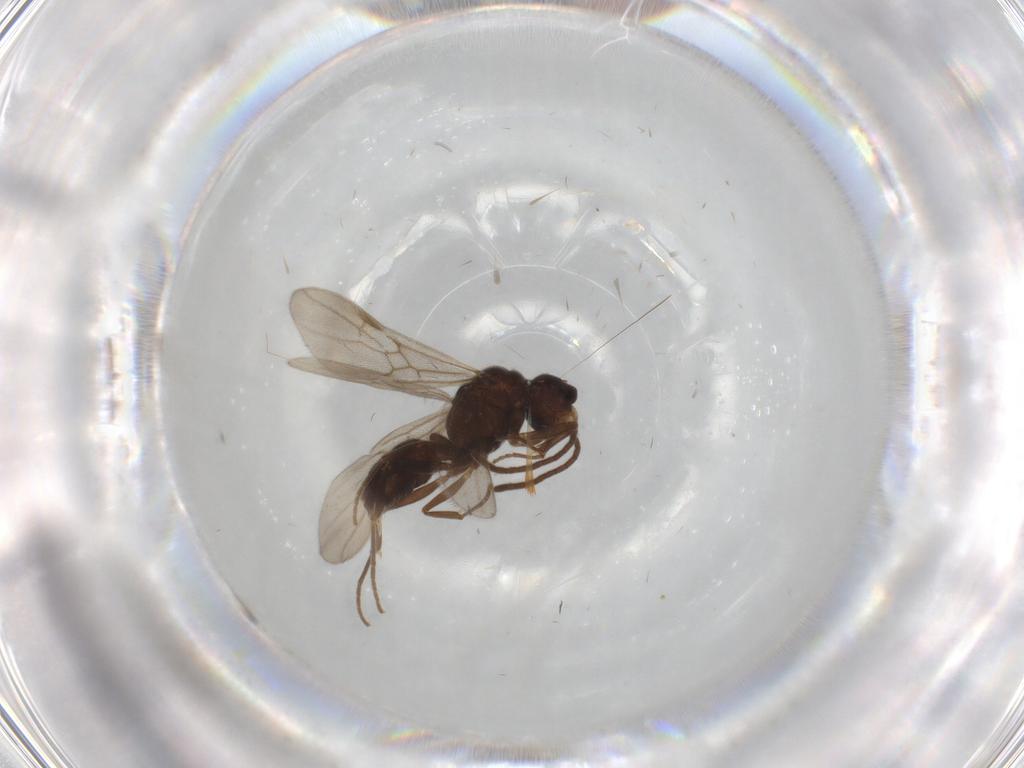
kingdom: Animalia
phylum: Arthropoda
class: Insecta
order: Hymenoptera
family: Formicidae
